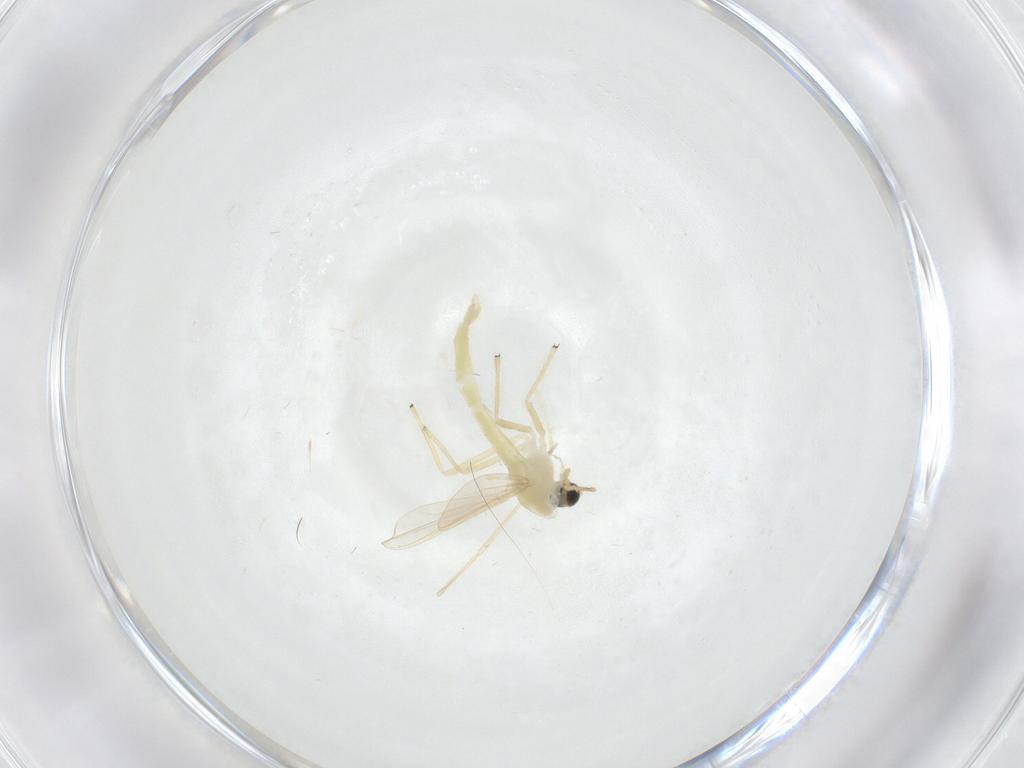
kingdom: Animalia
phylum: Arthropoda
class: Insecta
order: Diptera
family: Chironomidae
